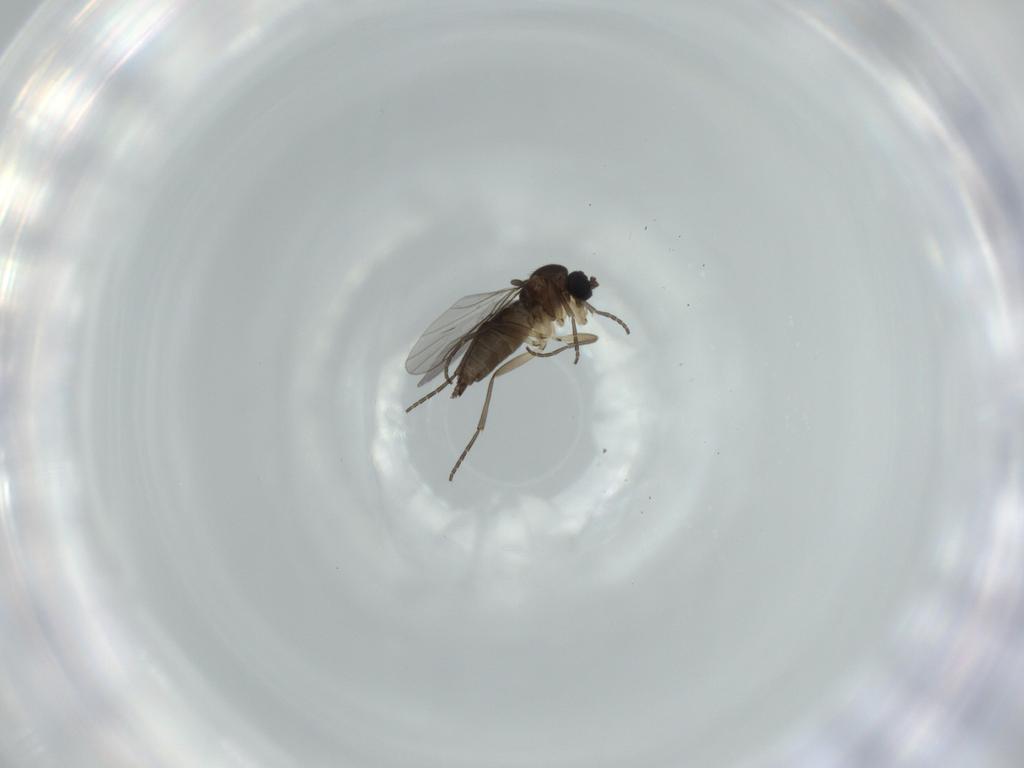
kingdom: Animalia
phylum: Arthropoda
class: Insecta
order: Diptera
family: Sciaridae
